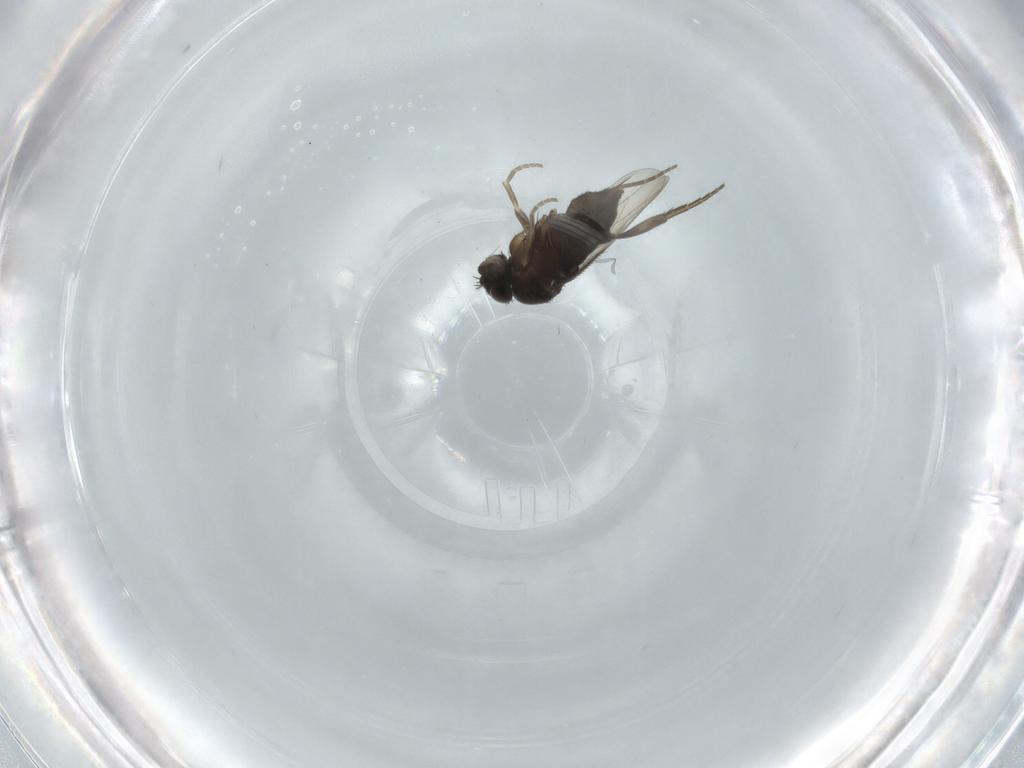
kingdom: Animalia
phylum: Arthropoda
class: Insecta
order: Diptera
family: Phoridae
